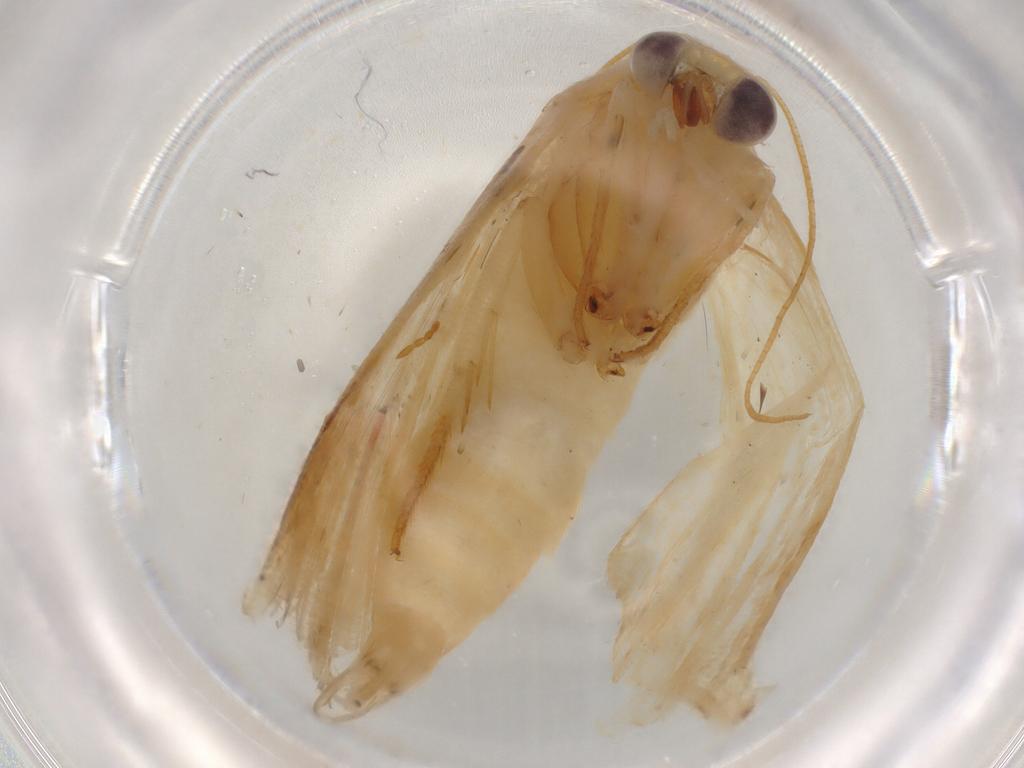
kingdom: Animalia
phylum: Arthropoda
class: Insecta
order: Lepidoptera
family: Noctuidae
